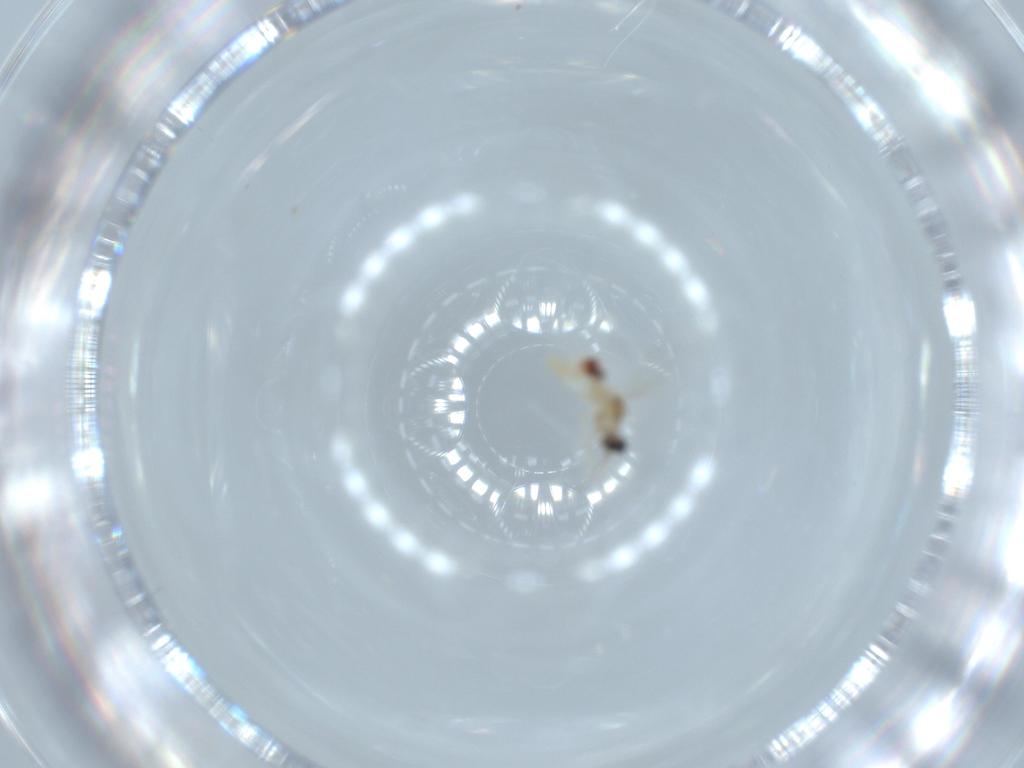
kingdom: Animalia
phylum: Arthropoda
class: Insecta
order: Diptera
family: Cecidomyiidae
